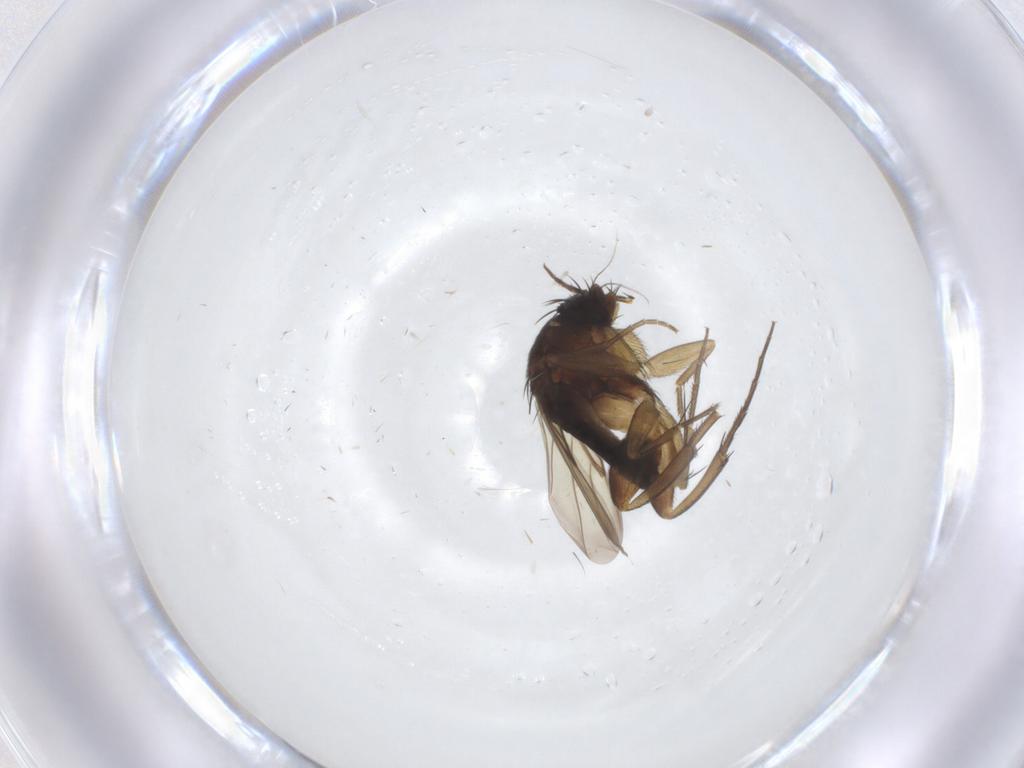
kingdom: Animalia
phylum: Arthropoda
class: Insecta
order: Diptera
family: Phoridae
